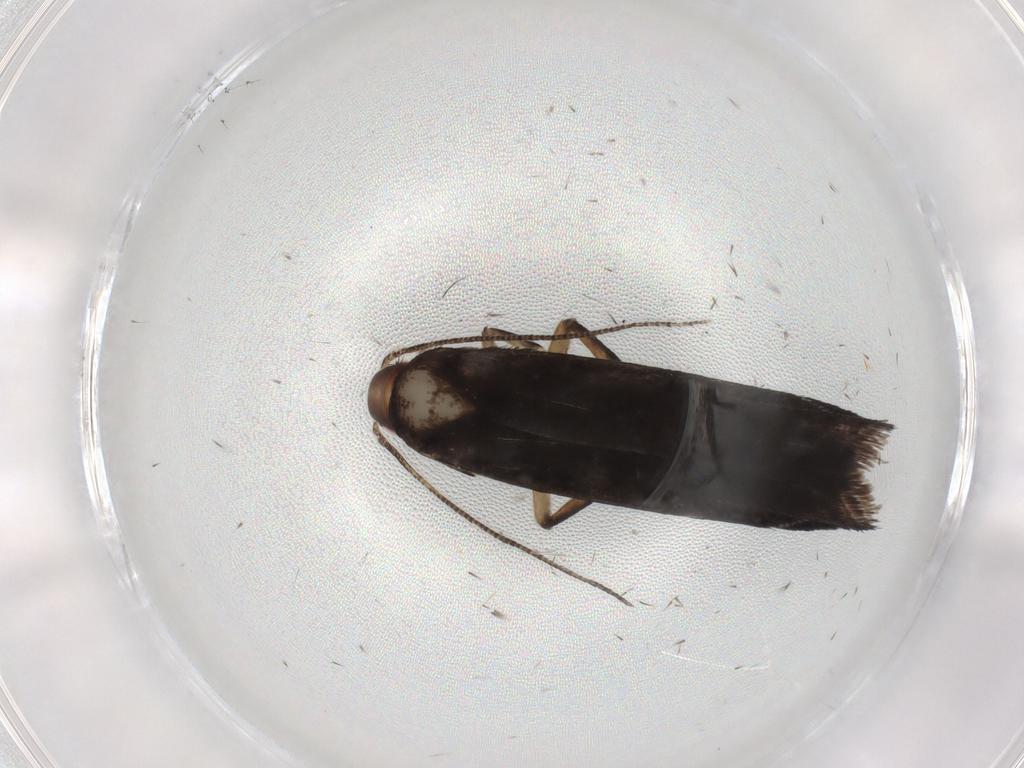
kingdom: Animalia
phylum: Arthropoda
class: Insecta
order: Lepidoptera
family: Gelechiidae
